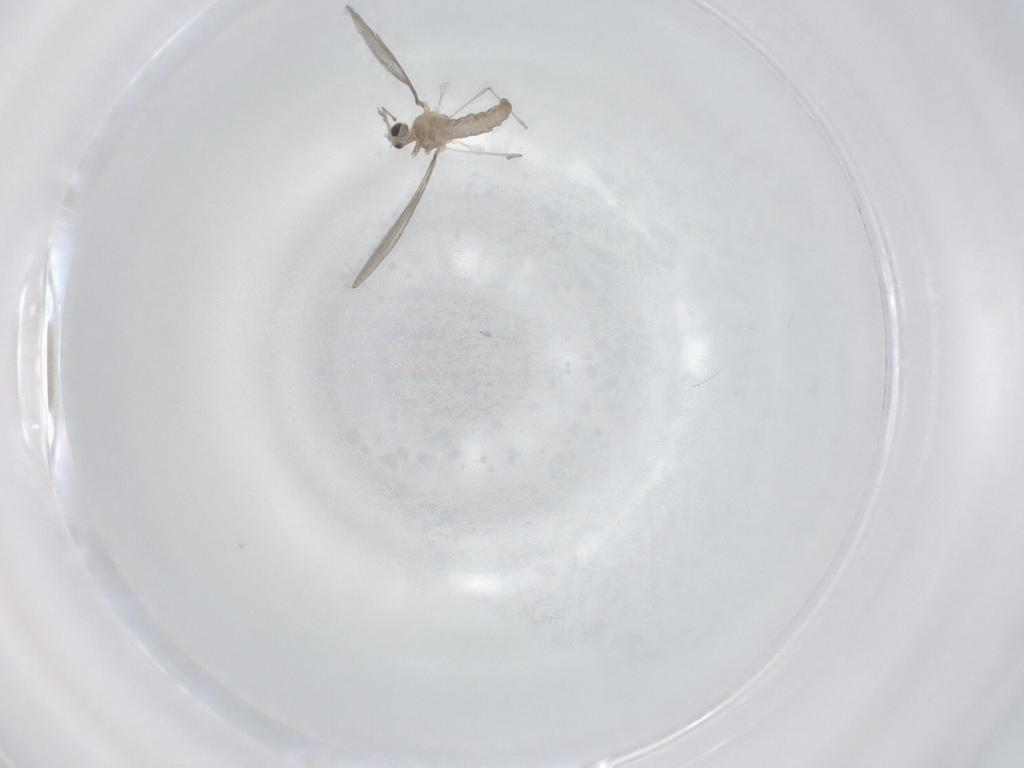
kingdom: Animalia
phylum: Arthropoda
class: Insecta
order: Diptera
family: Cecidomyiidae
